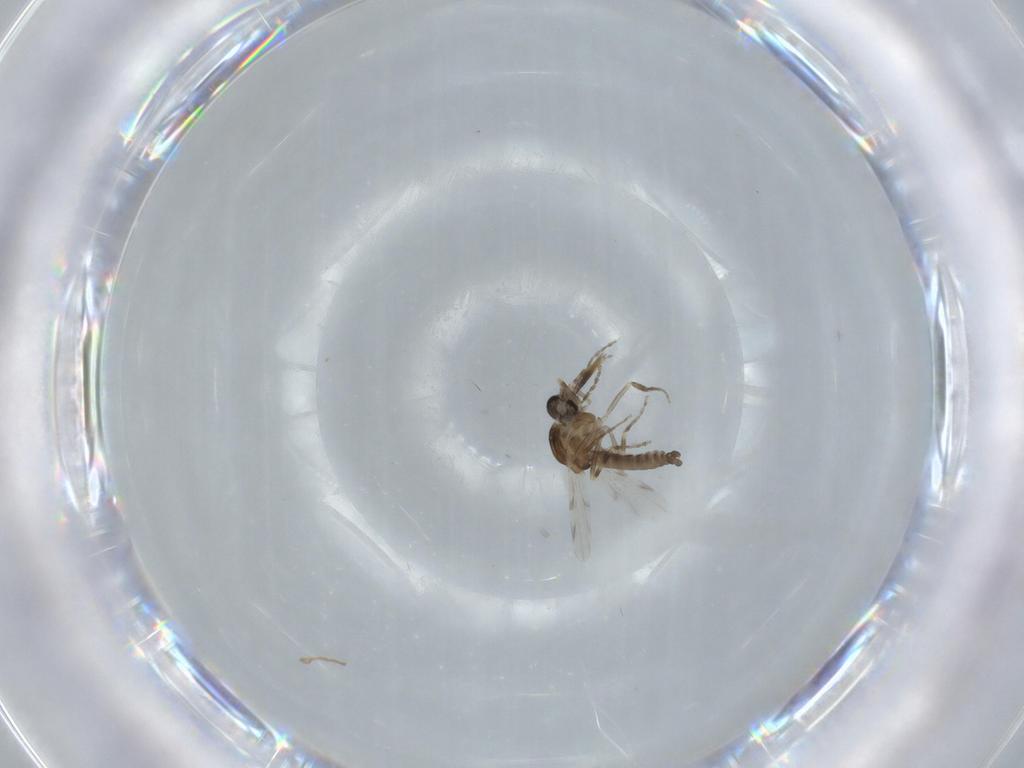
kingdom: Animalia
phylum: Arthropoda
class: Insecta
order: Diptera
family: Ceratopogonidae
